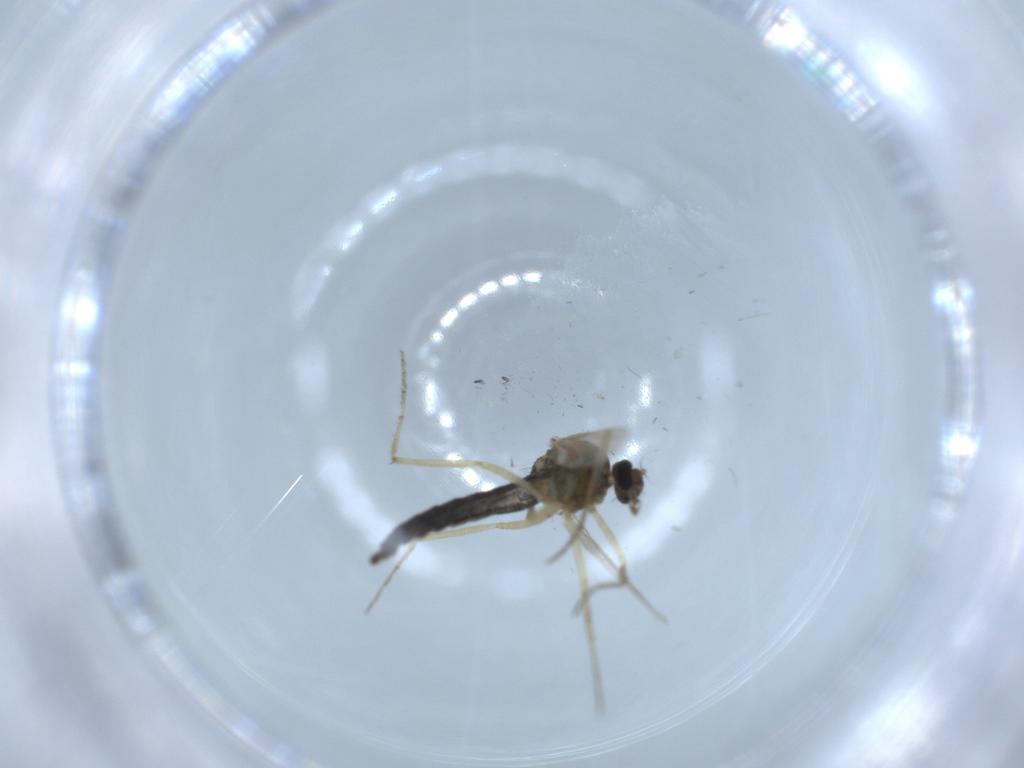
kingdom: Animalia
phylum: Arthropoda
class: Insecta
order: Diptera
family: Ceratopogonidae
